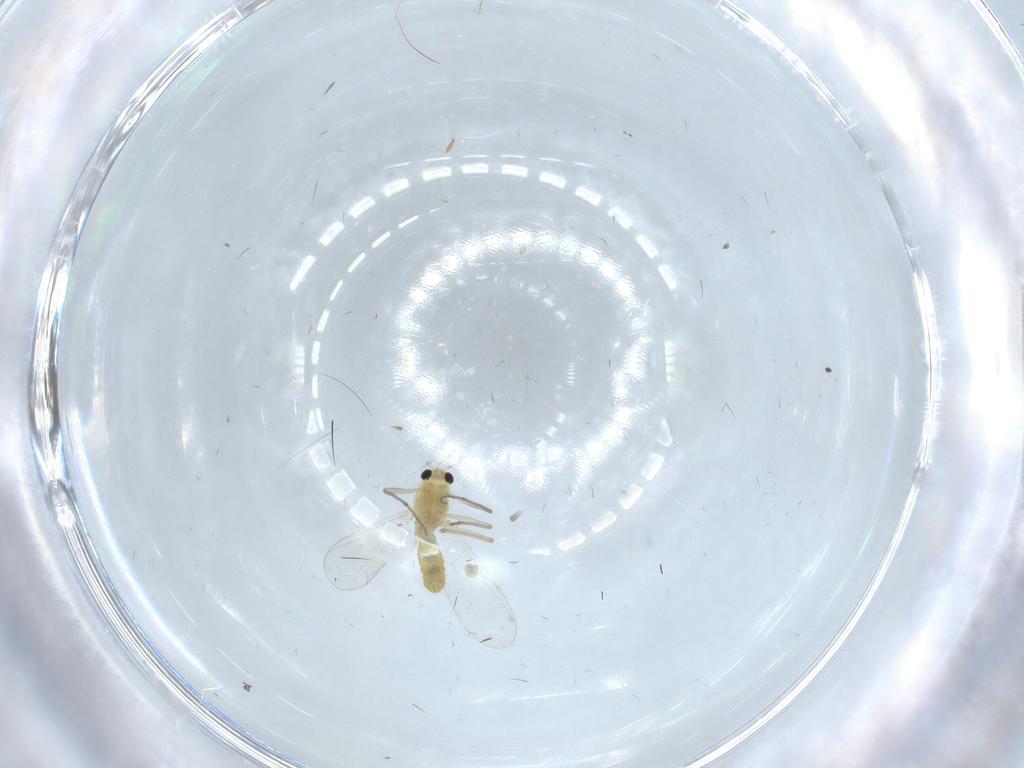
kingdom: Animalia
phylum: Arthropoda
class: Insecta
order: Diptera
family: Chironomidae
